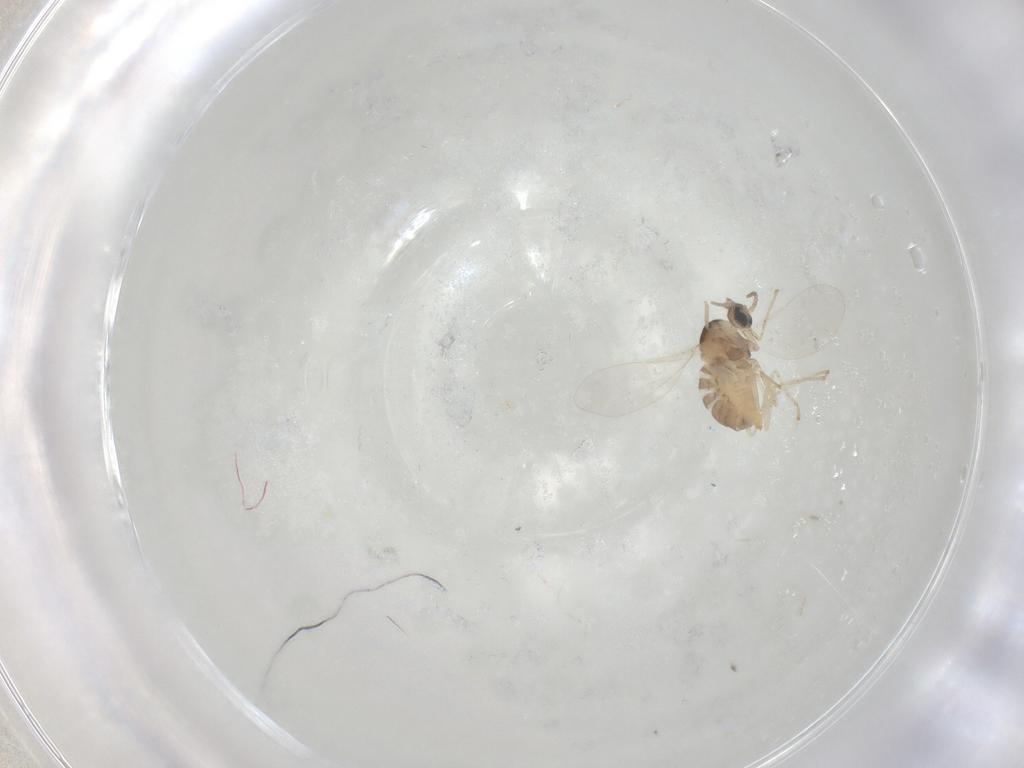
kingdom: Animalia
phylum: Arthropoda
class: Insecta
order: Diptera
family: Cecidomyiidae
